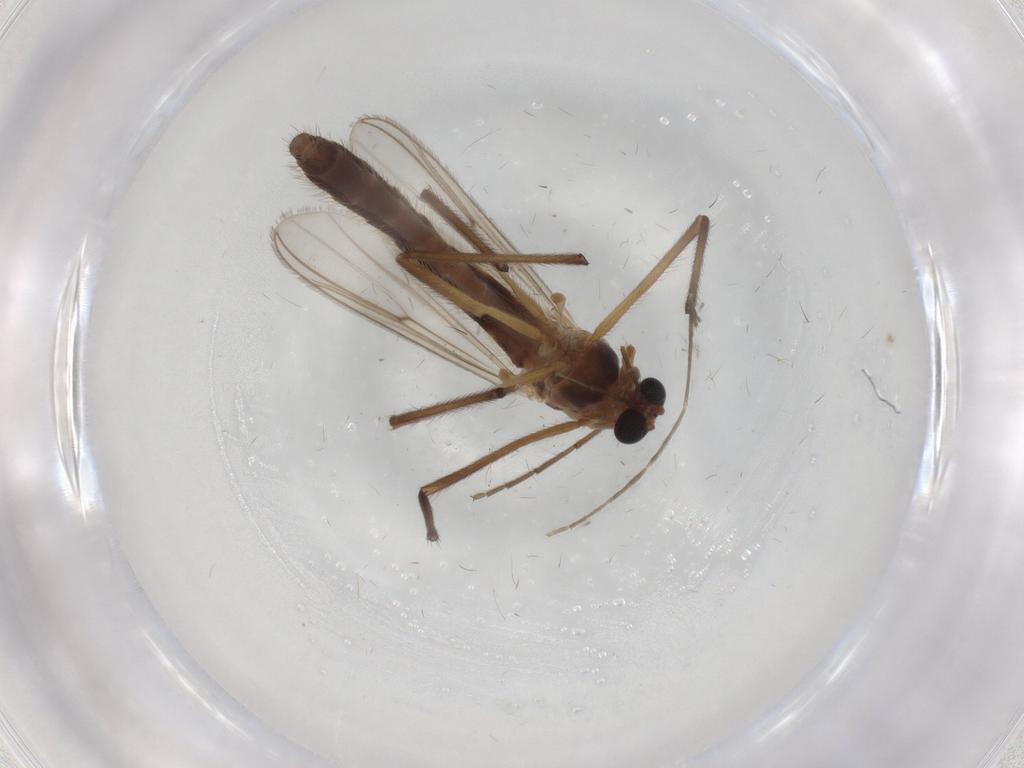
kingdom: Animalia
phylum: Arthropoda
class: Insecta
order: Diptera
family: Chironomidae
